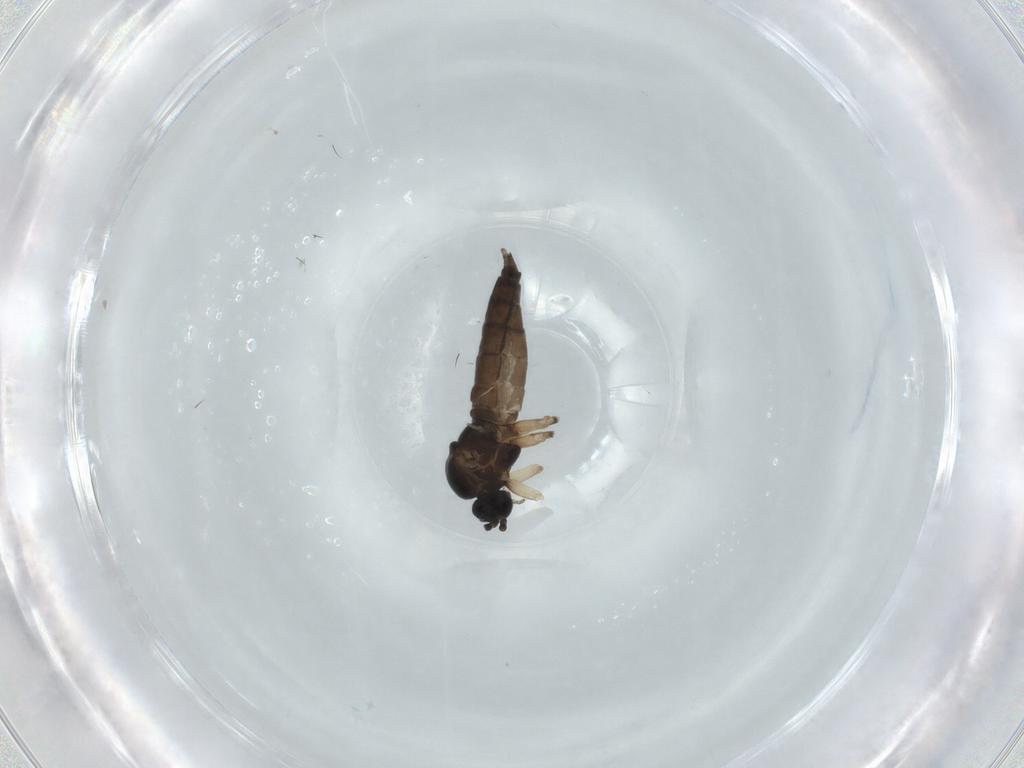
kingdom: Animalia
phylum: Arthropoda
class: Insecta
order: Diptera
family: Sciaridae
